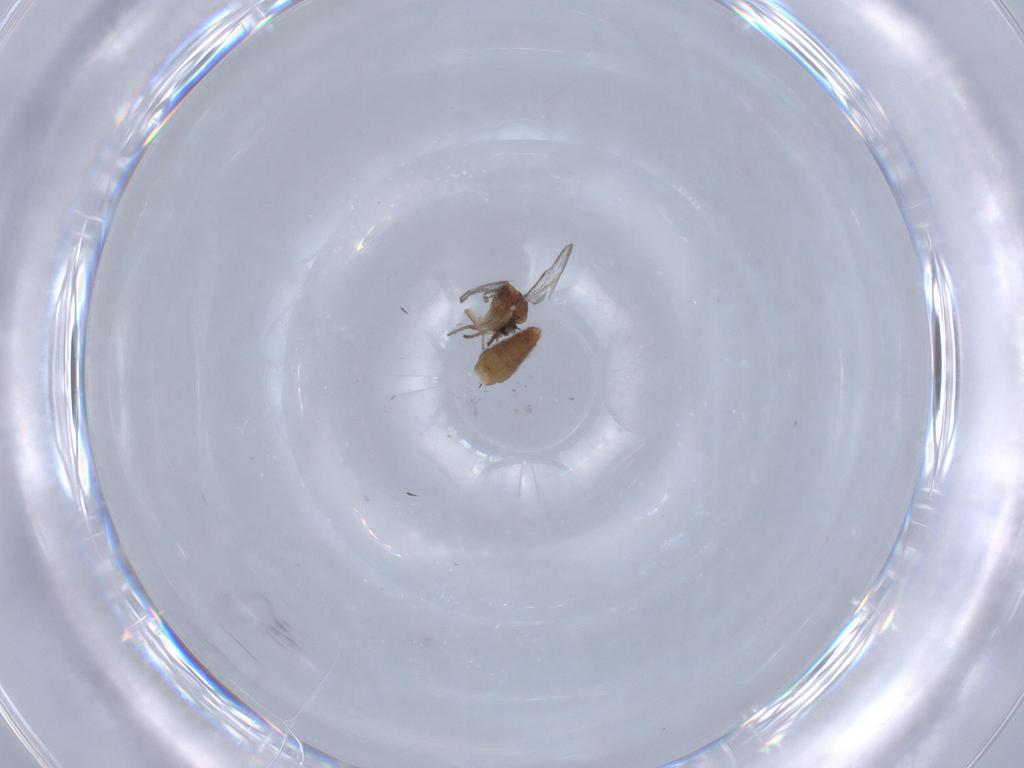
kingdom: Animalia
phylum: Arthropoda
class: Insecta
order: Diptera
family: Ceratopogonidae
